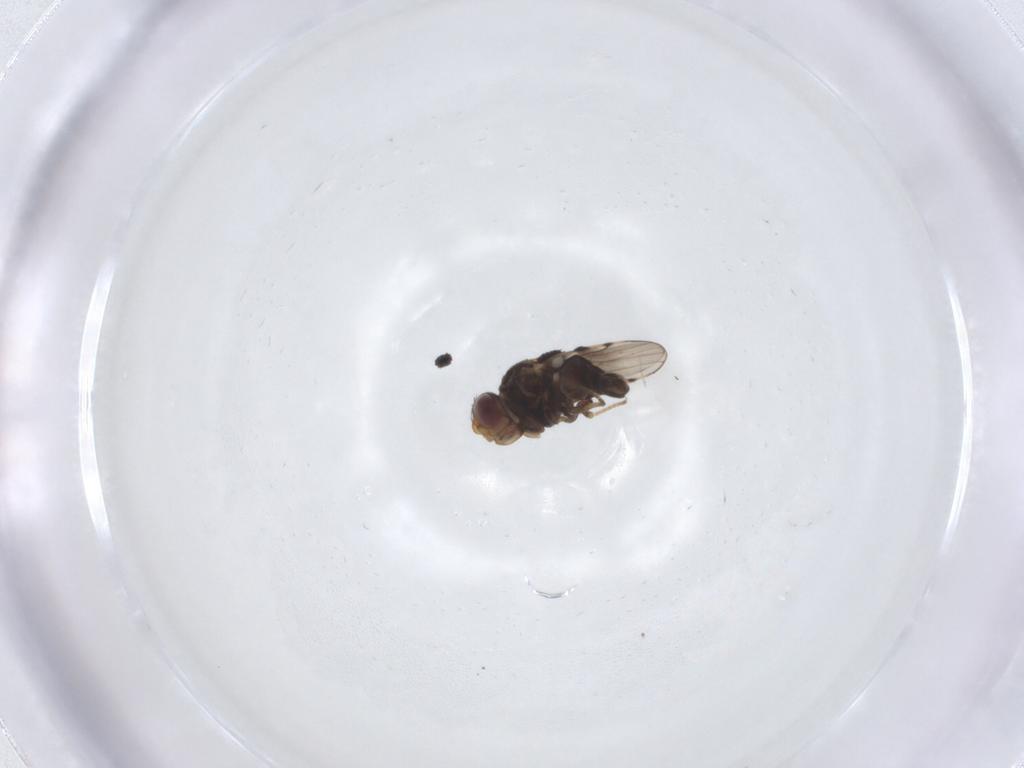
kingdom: Animalia
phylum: Arthropoda
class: Insecta
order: Diptera
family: Chloropidae
